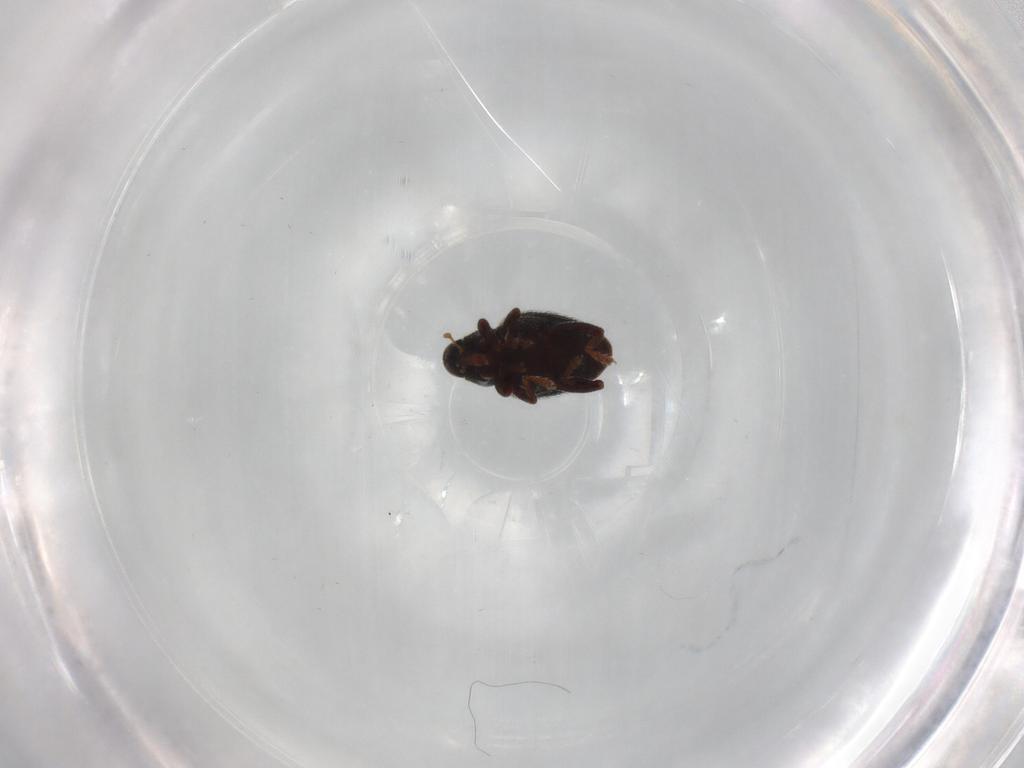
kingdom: Animalia
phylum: Arthropoda
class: Insecta
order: Coleoptera
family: Curculionidae
